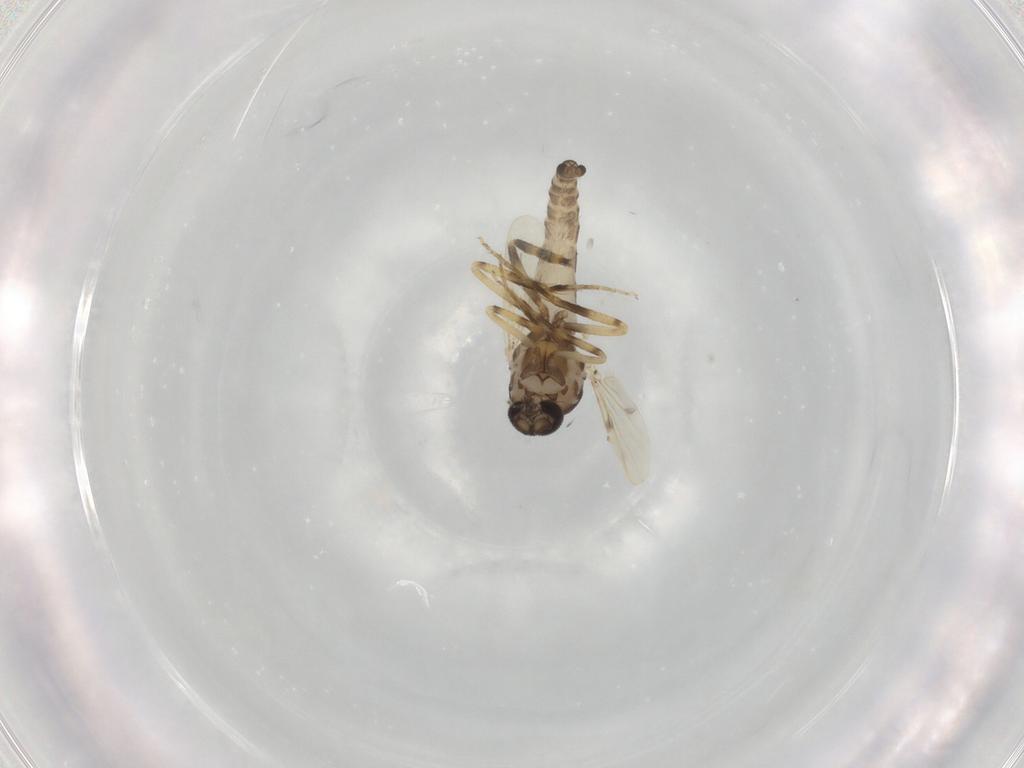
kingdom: Animalia
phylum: Arthropoda
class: Insecta
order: Diptera
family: Ceratopogonidae
